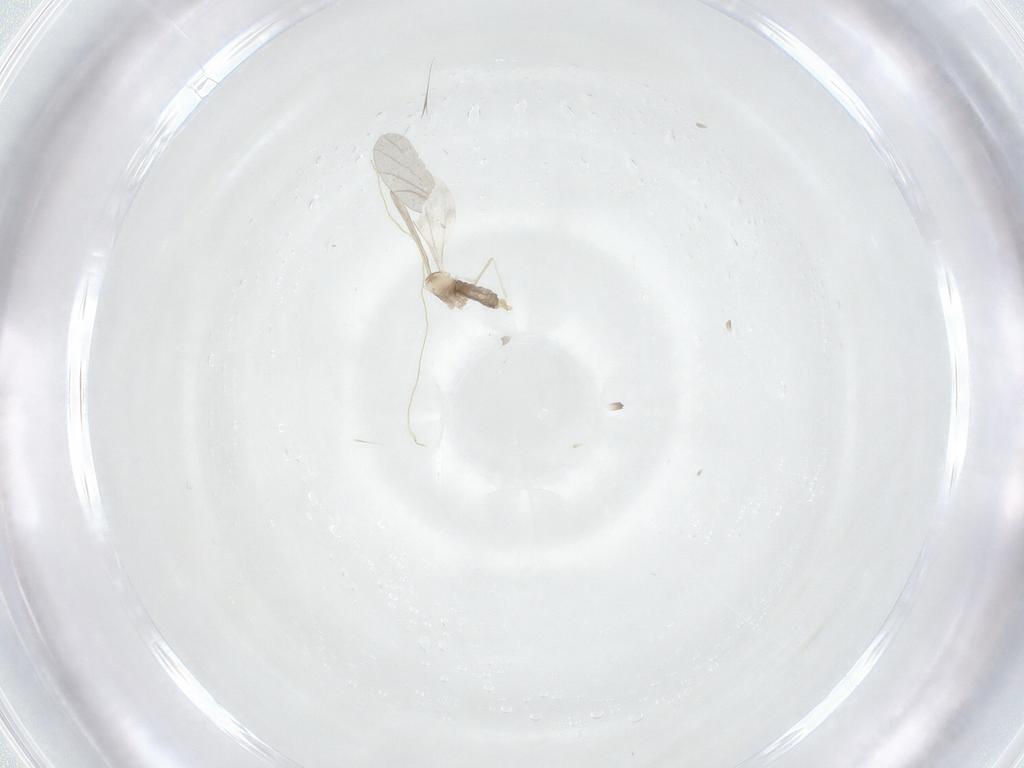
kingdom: Animalia
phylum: Arthropoda
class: Insecta
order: Diptera
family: Cecidomyiidae
